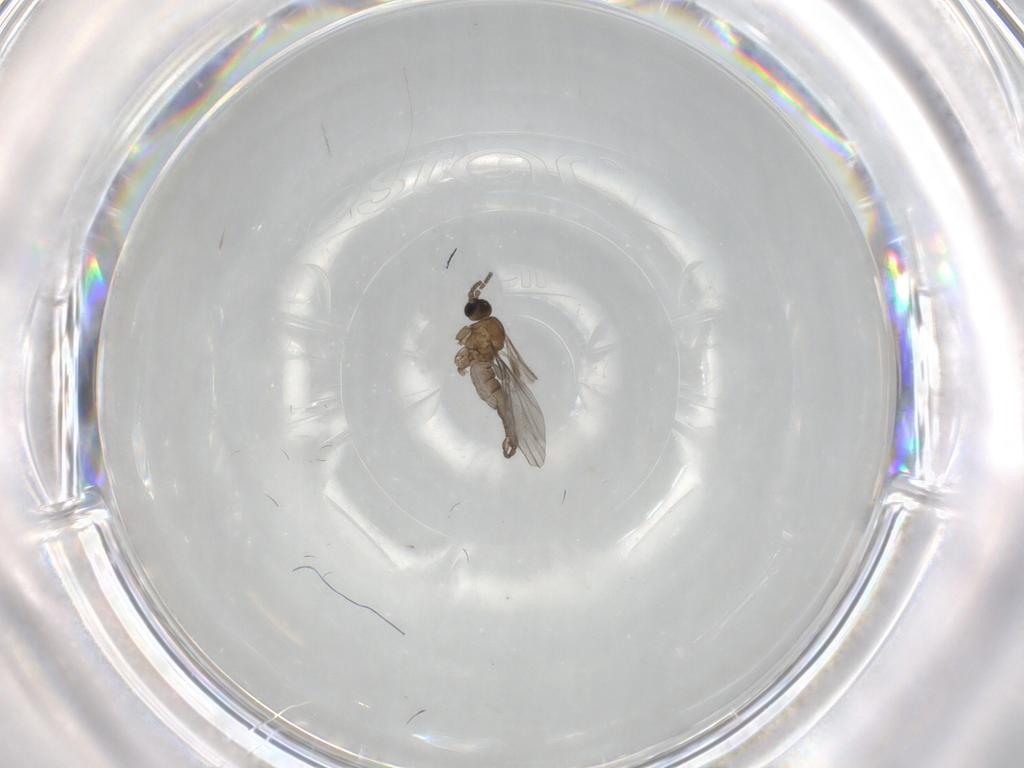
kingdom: Animalia
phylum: Arthropoda
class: Insecta
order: Diptera
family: Sciaridae
